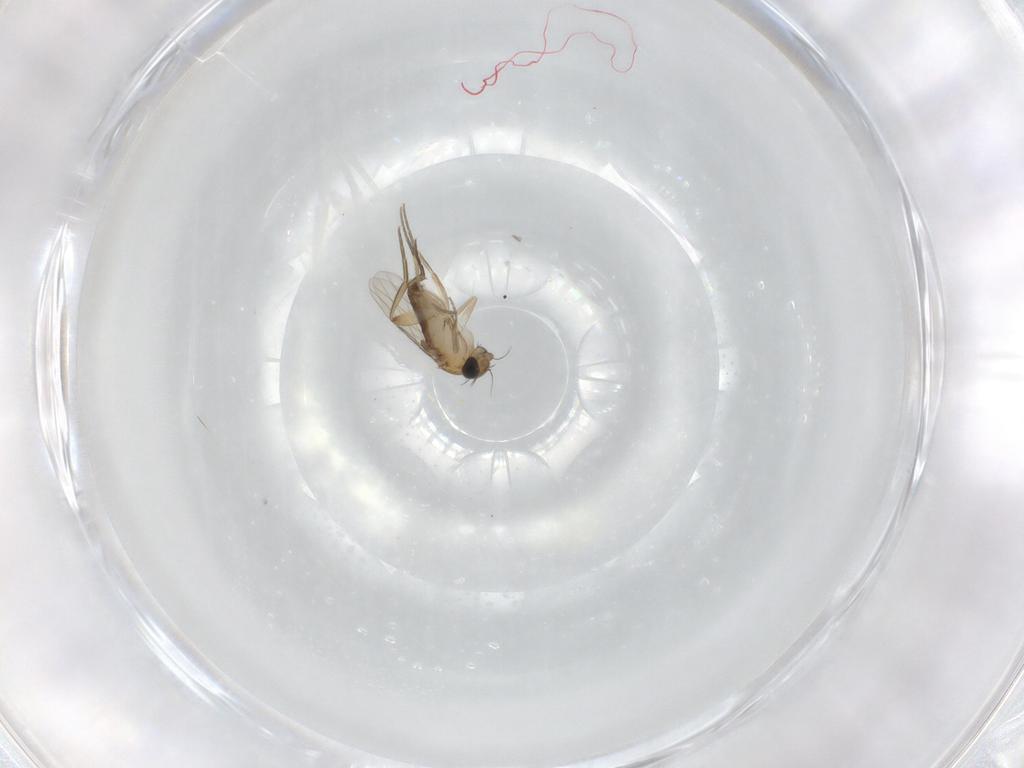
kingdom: Animalia
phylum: Arthropoda
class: Insecta
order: Diptera
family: Phoridae
